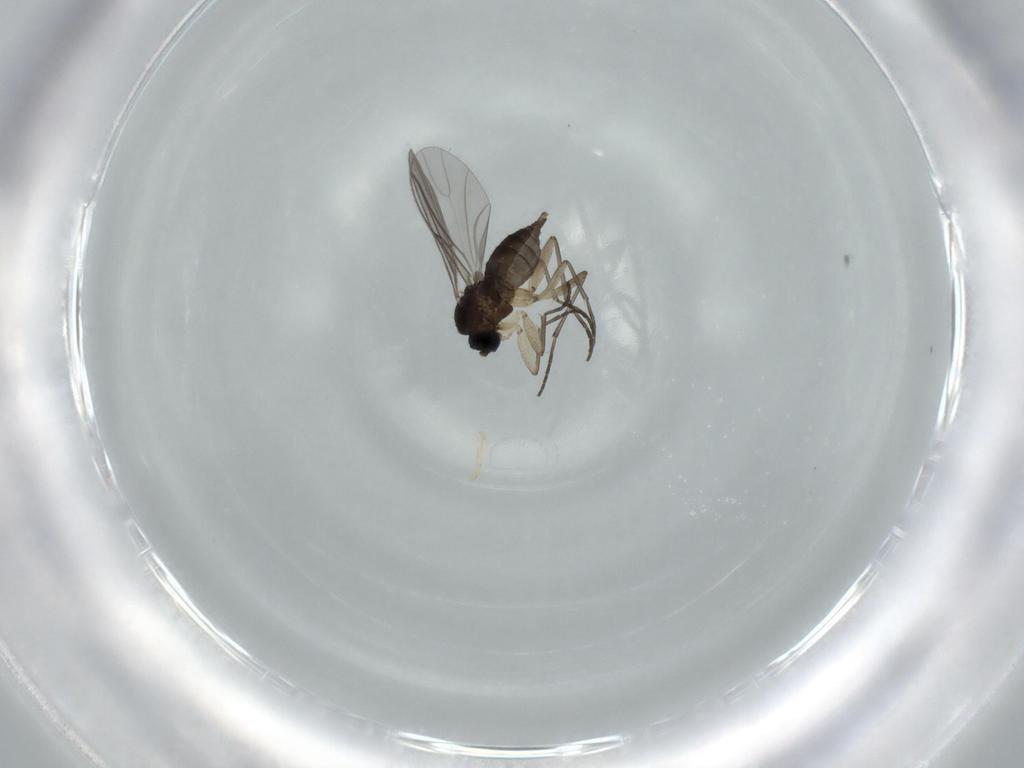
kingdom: Animalia
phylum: Arthropoda
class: Insecta
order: Diptera
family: Sciaridae
